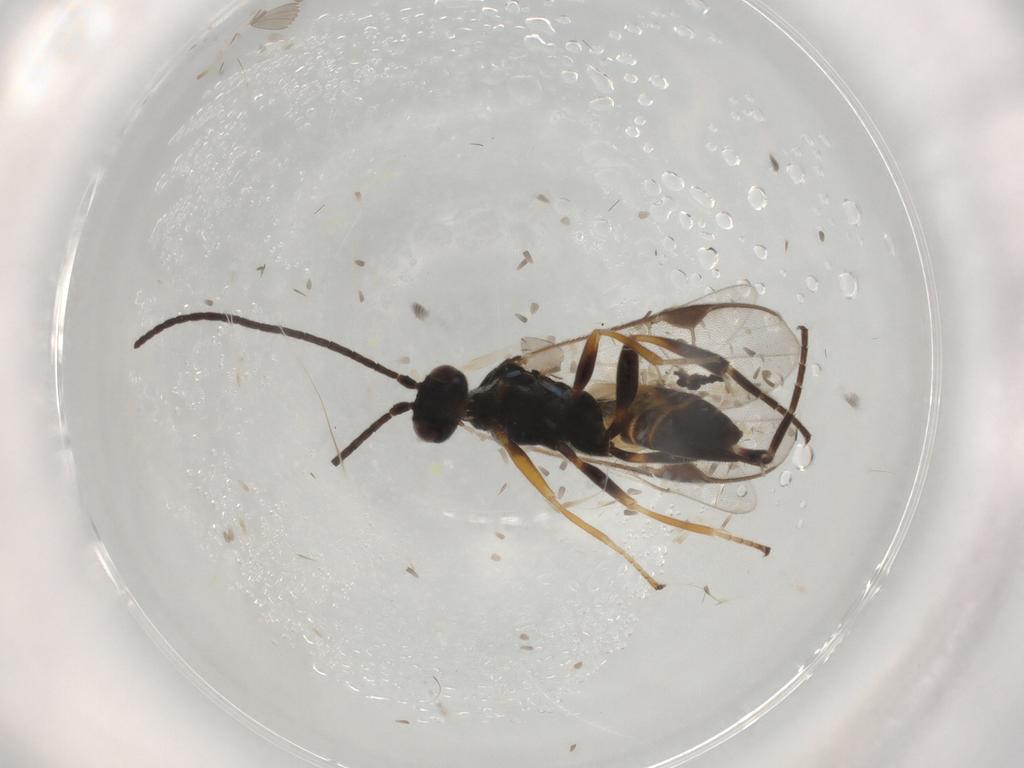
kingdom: Animalia
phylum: Arthropoda
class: Insecta
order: Hymenoptera
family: Braconidae
